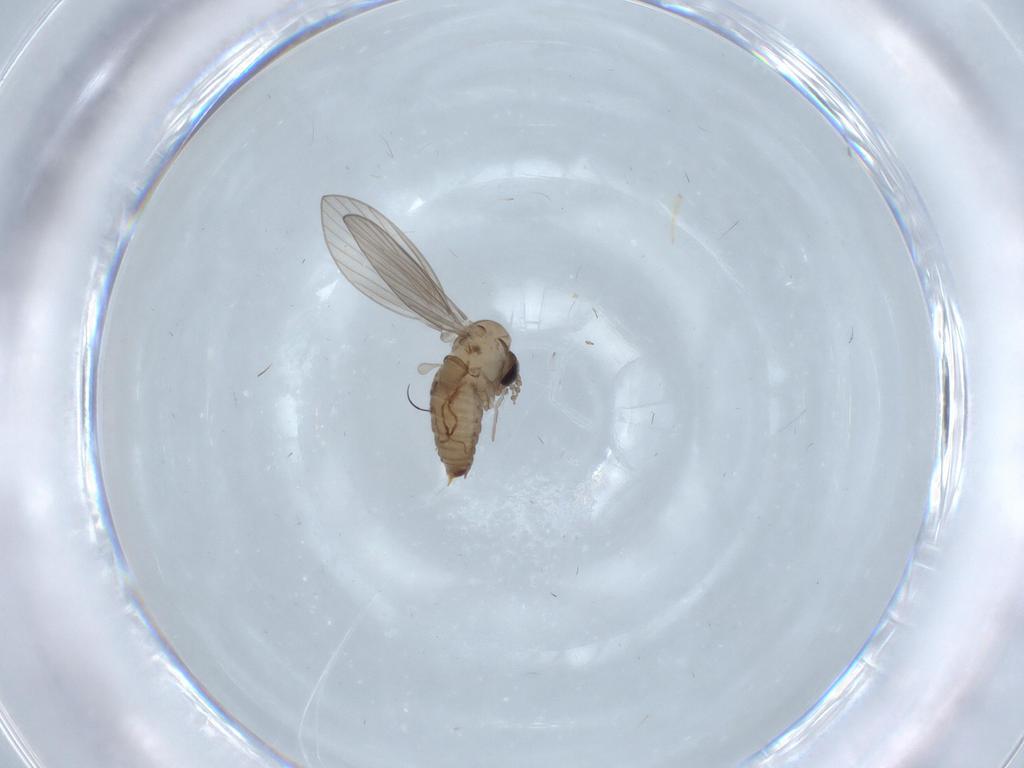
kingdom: Animalia
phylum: Arthropoda
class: Insecta
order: Diptera
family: Psychodidae
